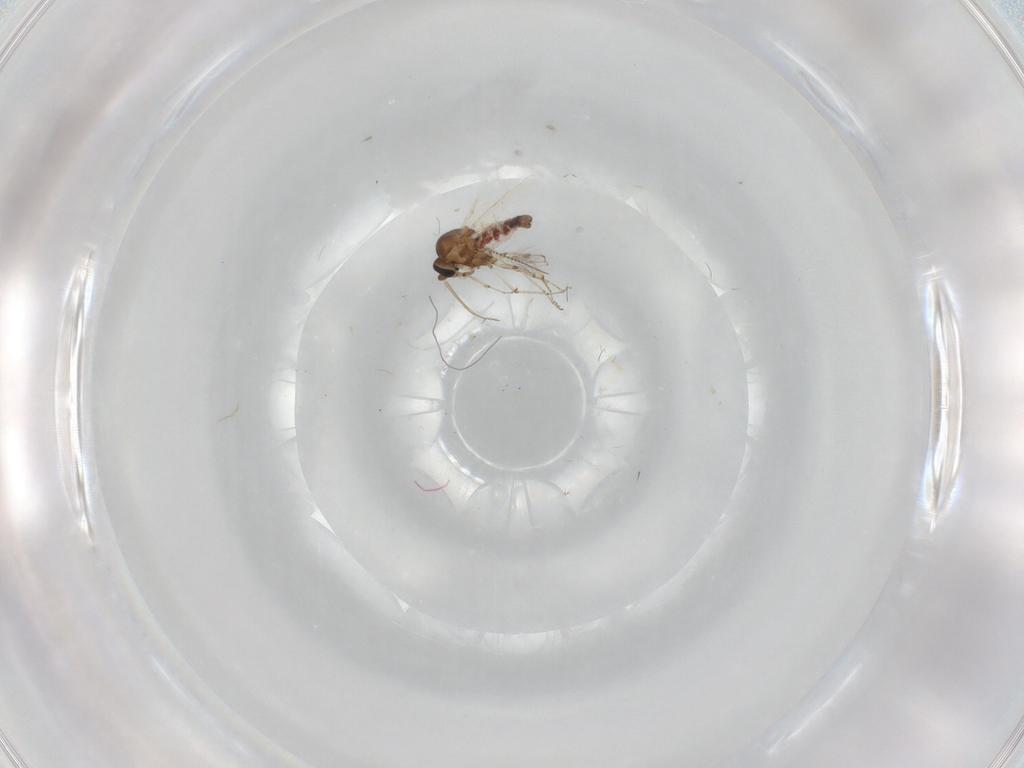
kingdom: Animalia
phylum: Arthropoda
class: Insecta
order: Diptera
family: Ceratopogonidae
